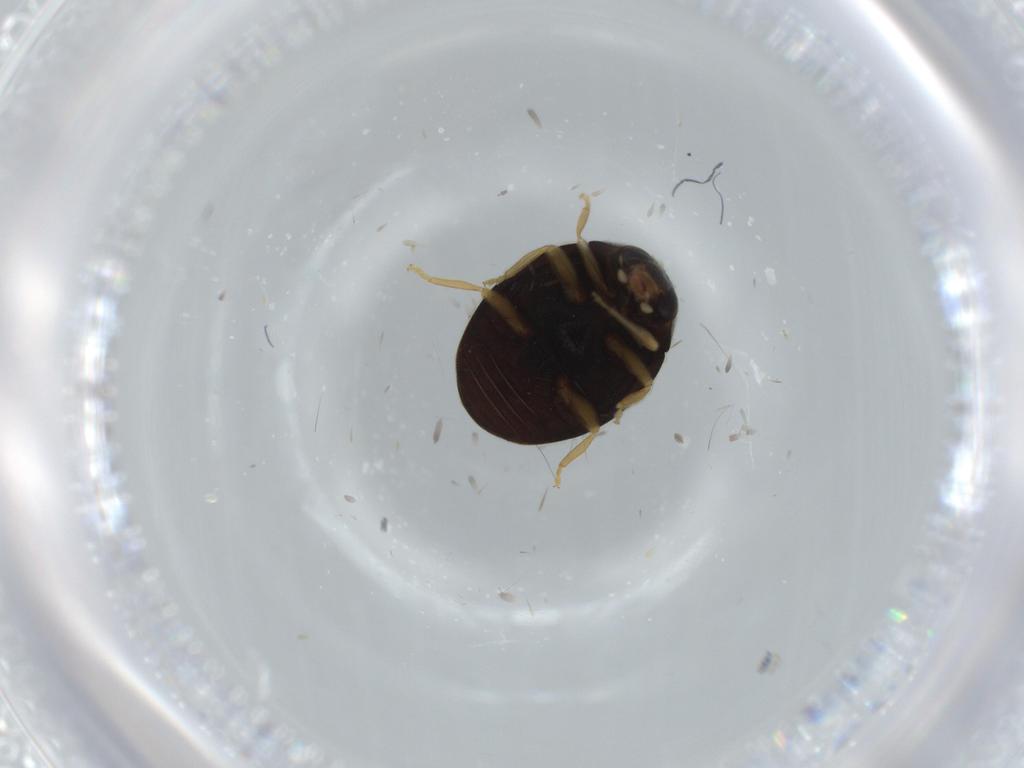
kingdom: Animalia
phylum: Arthropoda
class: Insecta
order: Coleoptera
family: Coccinellidae
